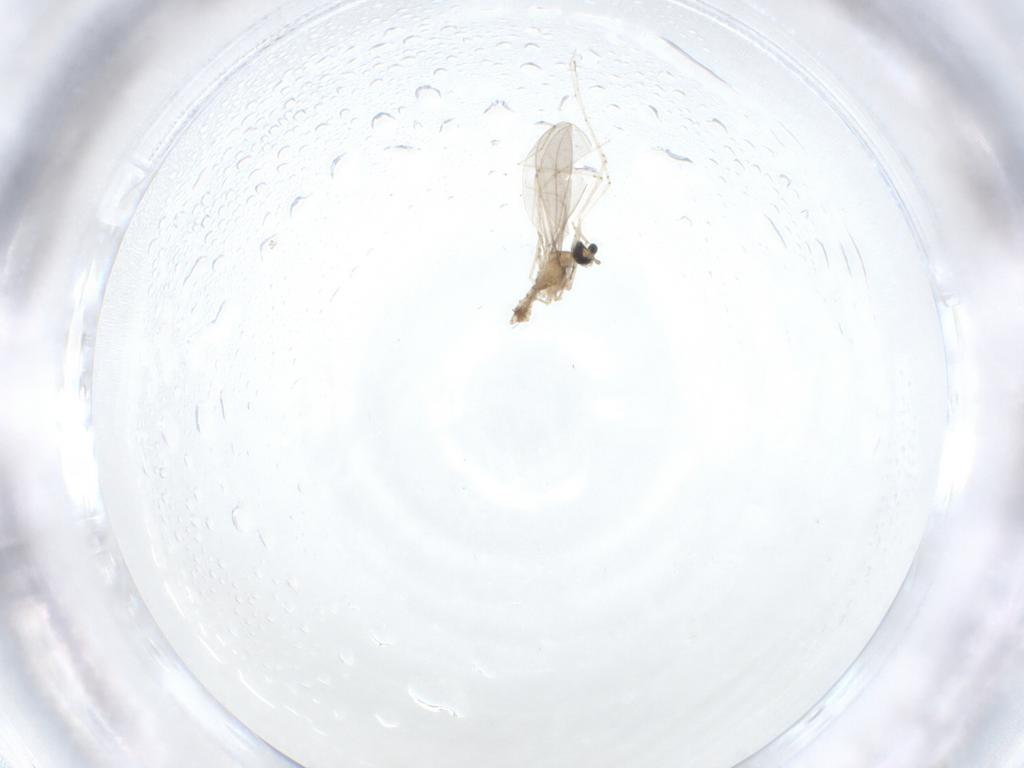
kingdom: Animalia
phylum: Arthropoda
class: Insecta
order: Diptera
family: Cecidomyiidae
